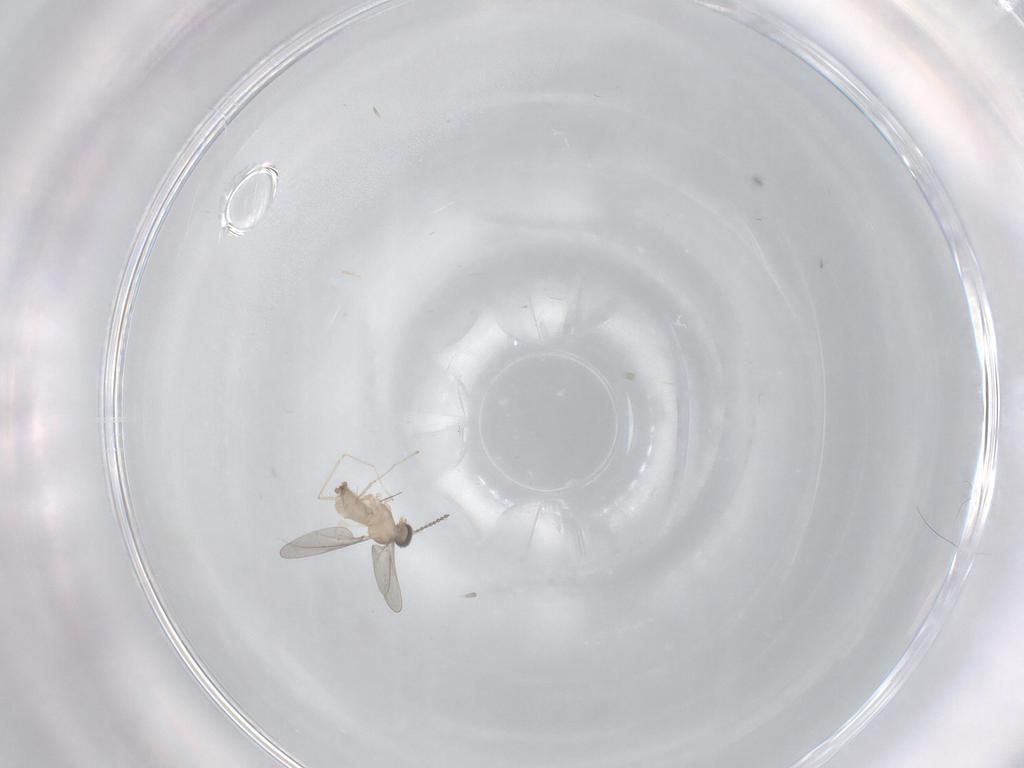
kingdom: Animalia
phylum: Arthropoda
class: Insecta
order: Diptera
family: Cecidomyiidae
